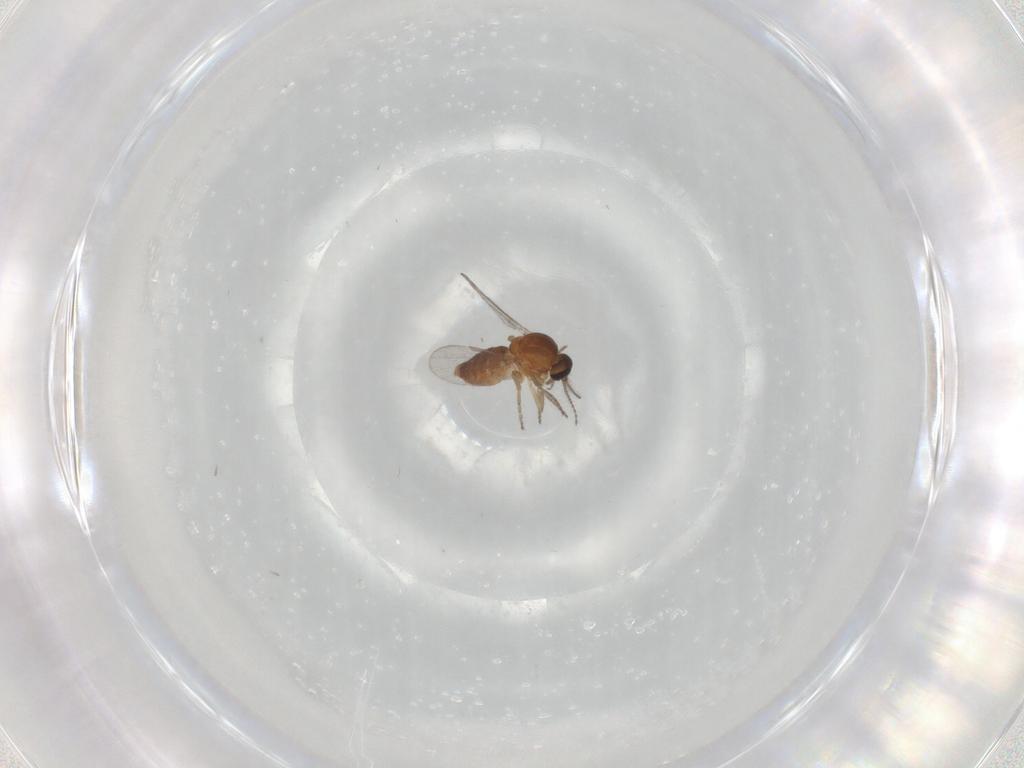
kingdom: Animalia
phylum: Arthropoda
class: Insecta
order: Diptera
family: Ceratopogonidae
